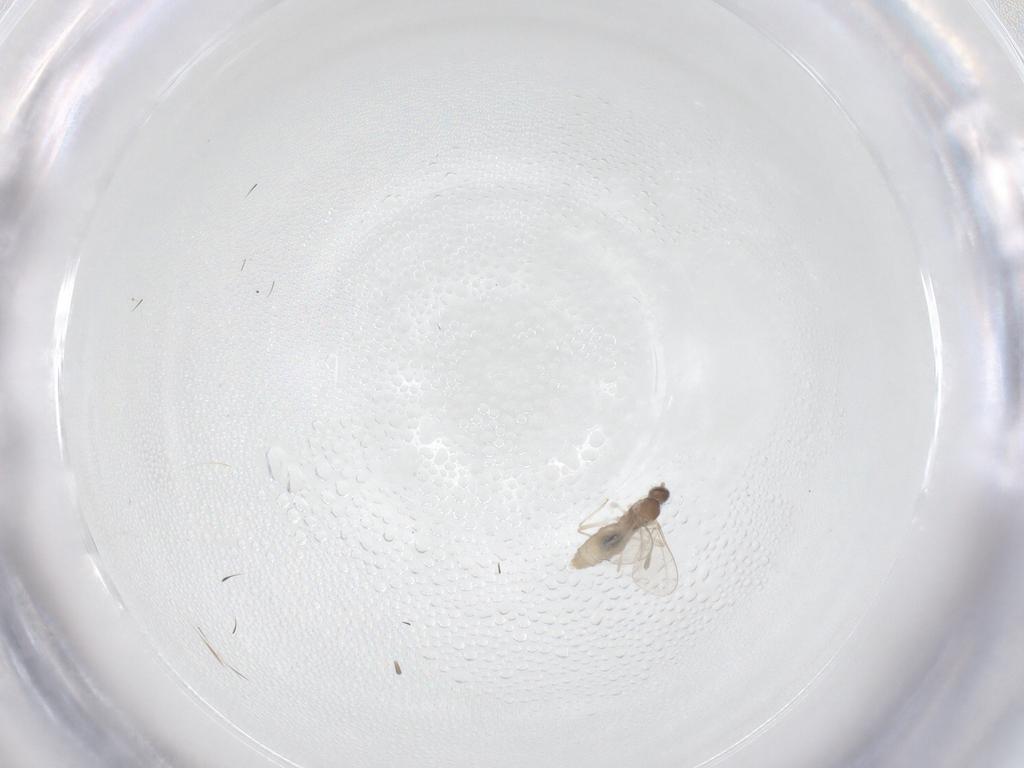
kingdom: Animalia
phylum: Arthropoda
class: Insecta
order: Diptera
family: Cecidomyiidae
